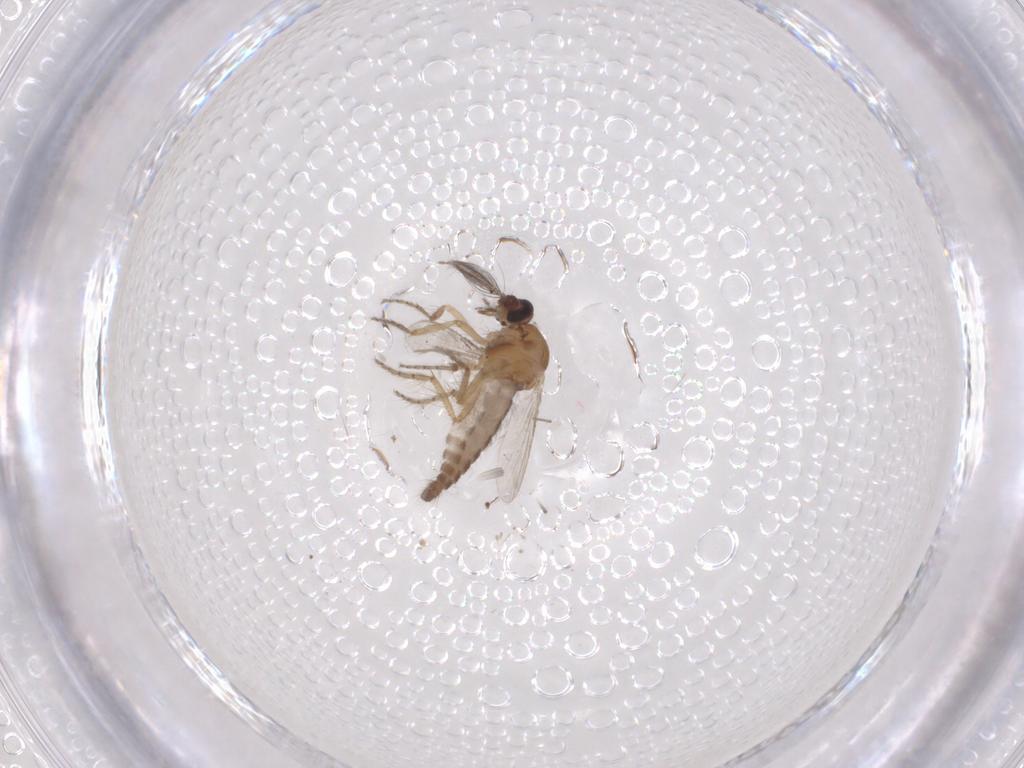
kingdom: Animalia
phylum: Arthropoda
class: Insecta
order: Diptera
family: Ceratopogonidae
